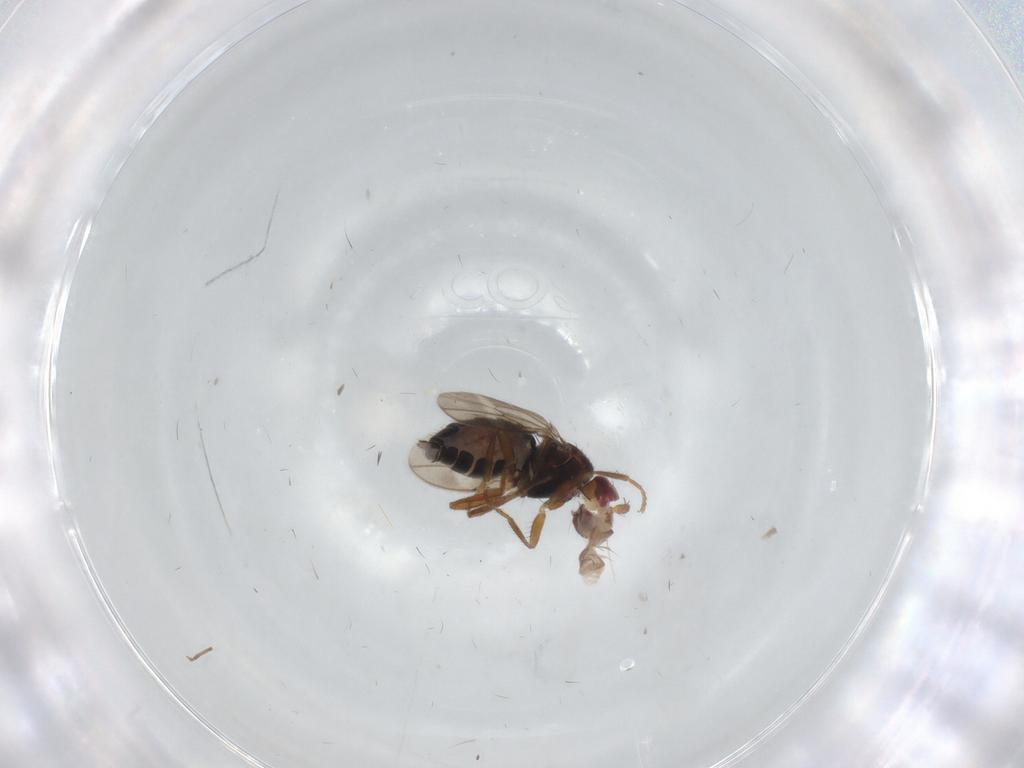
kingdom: Animalia
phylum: Arthropoda
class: Insecta
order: Diptera
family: Sphaeroceridae
